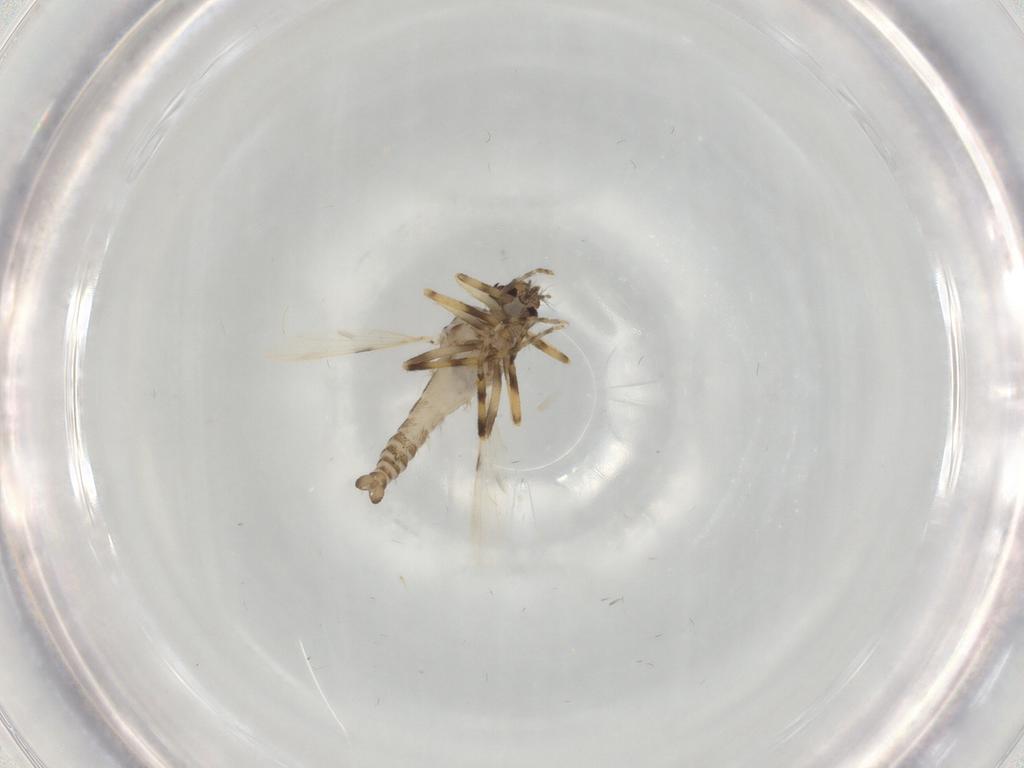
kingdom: Animalia
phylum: Arthropoda
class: Insecta
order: Diptera
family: Ceratopogonidae
